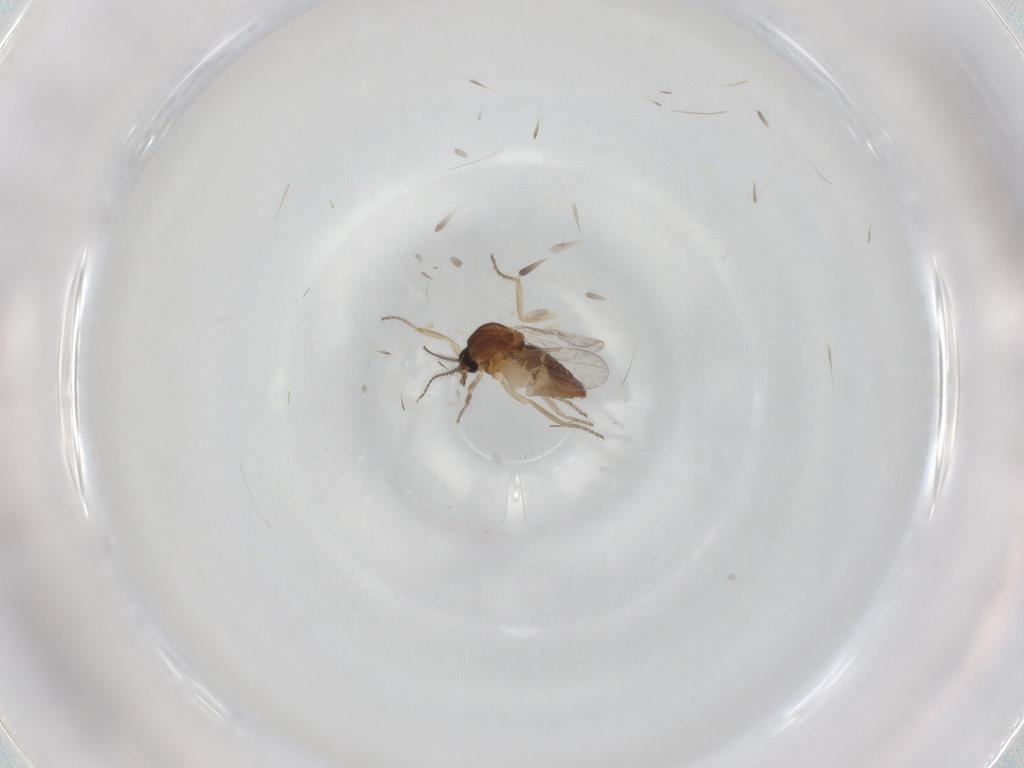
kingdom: Animalia
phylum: Arthropoda
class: Insecta
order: Diptera
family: Ceratopogonidae
